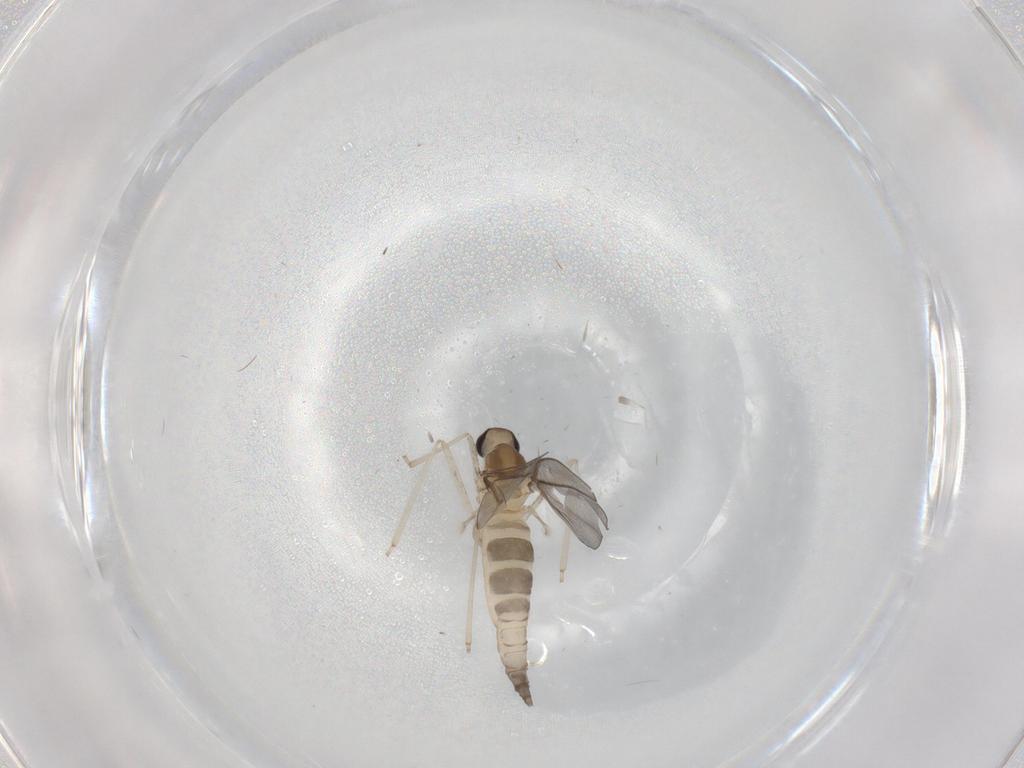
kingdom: Animalia
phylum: Arthropoda
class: Insecta
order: Diptera
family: Cecidomyiidae
